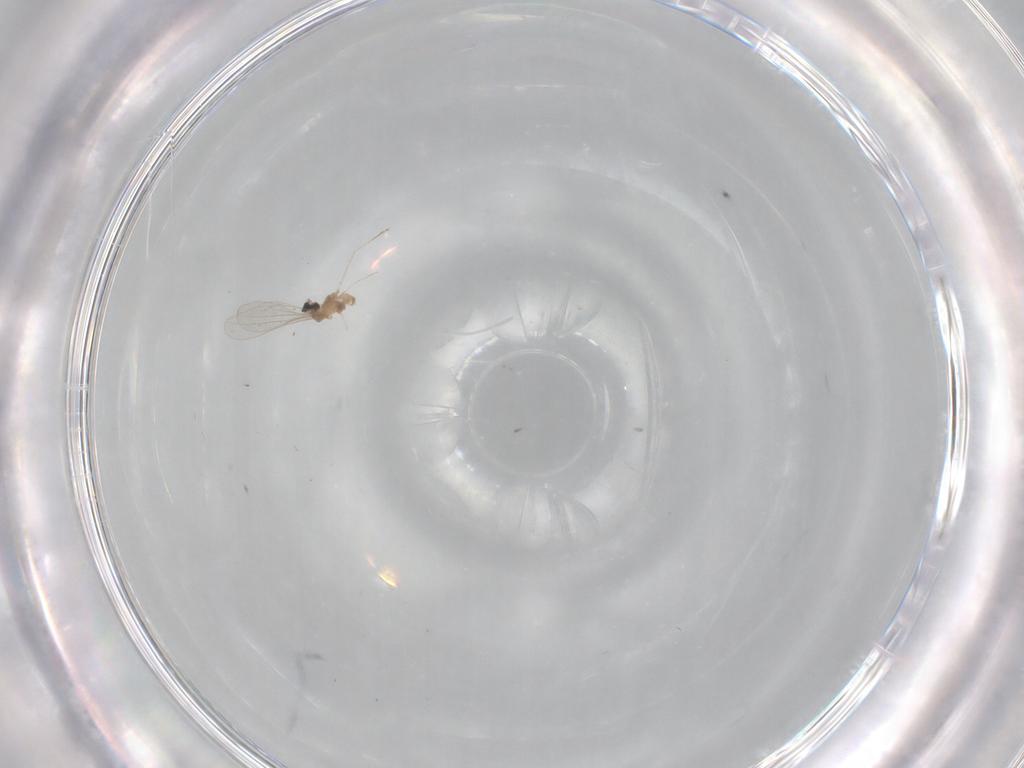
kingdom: Animalia
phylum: Arthropoda
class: Insecta
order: Diptera
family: Cecidomyiidae
